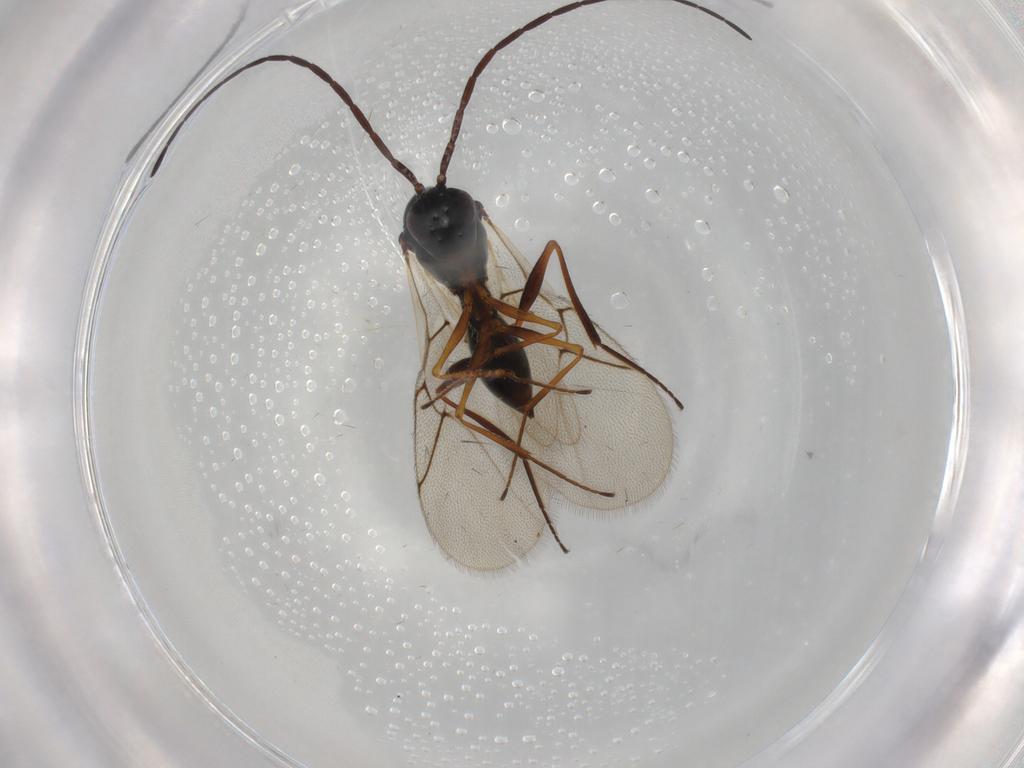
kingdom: Animalia
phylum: Arthropoda
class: Insecta
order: Hymenoptera
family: Figitidae
